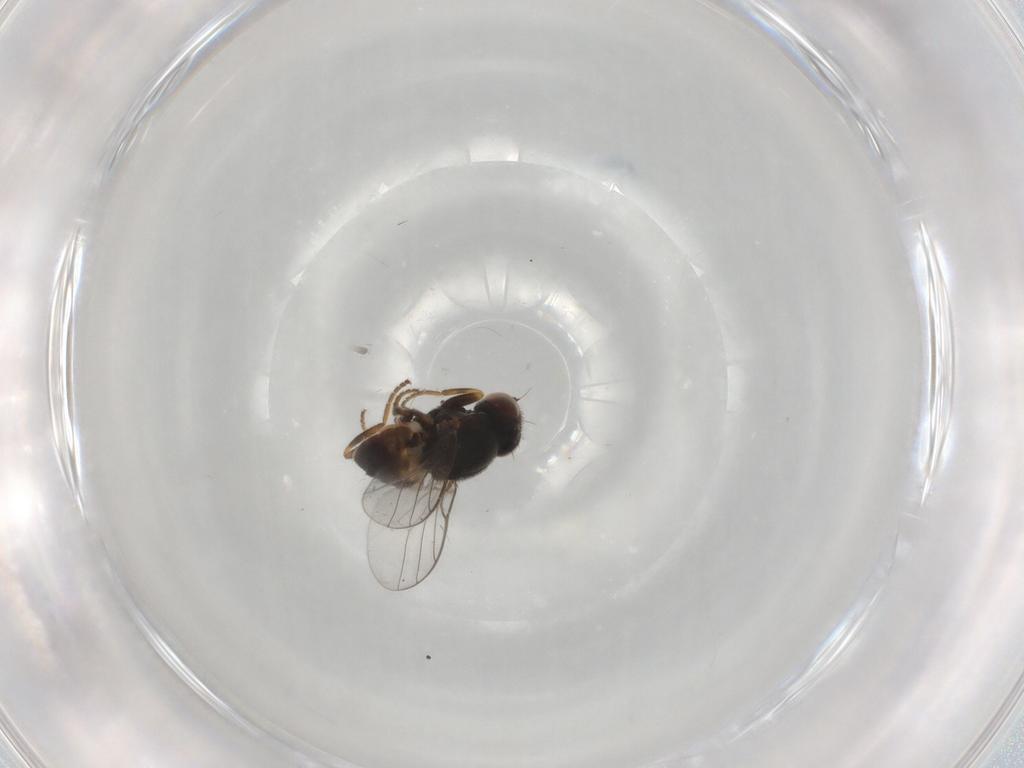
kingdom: Animalia
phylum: Arthropoda
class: Insecta
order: Diptera
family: Chloropidae
